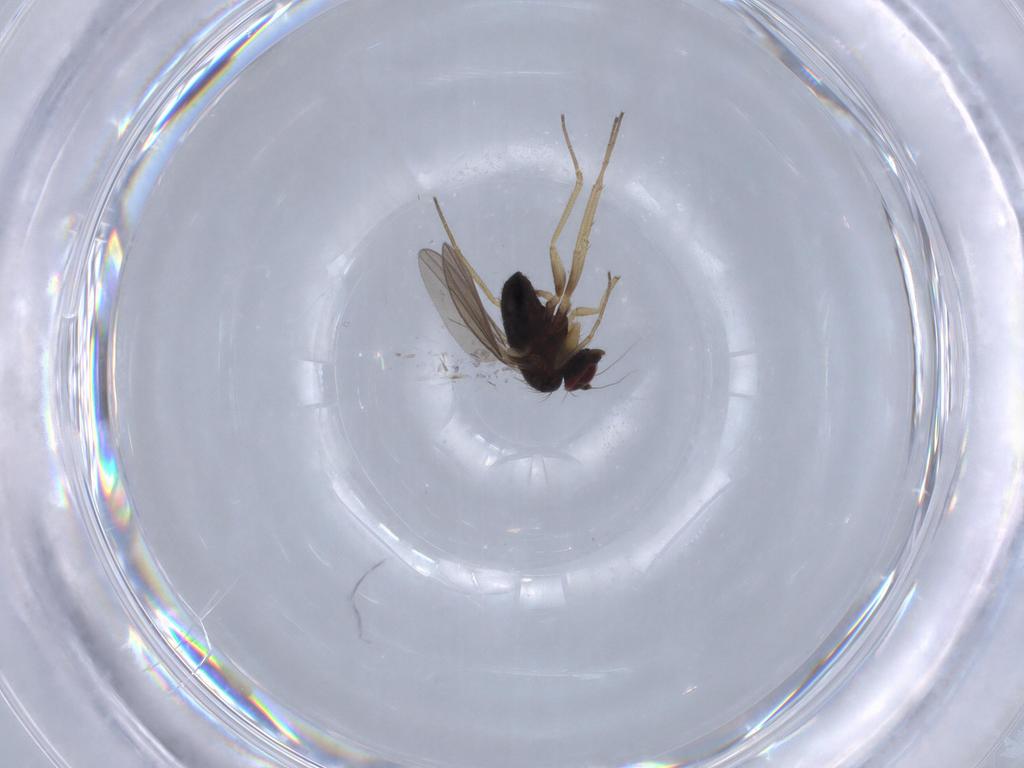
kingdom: Animalia
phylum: Arthropoda
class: Insecta
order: Diptera
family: Dolichopodidae
